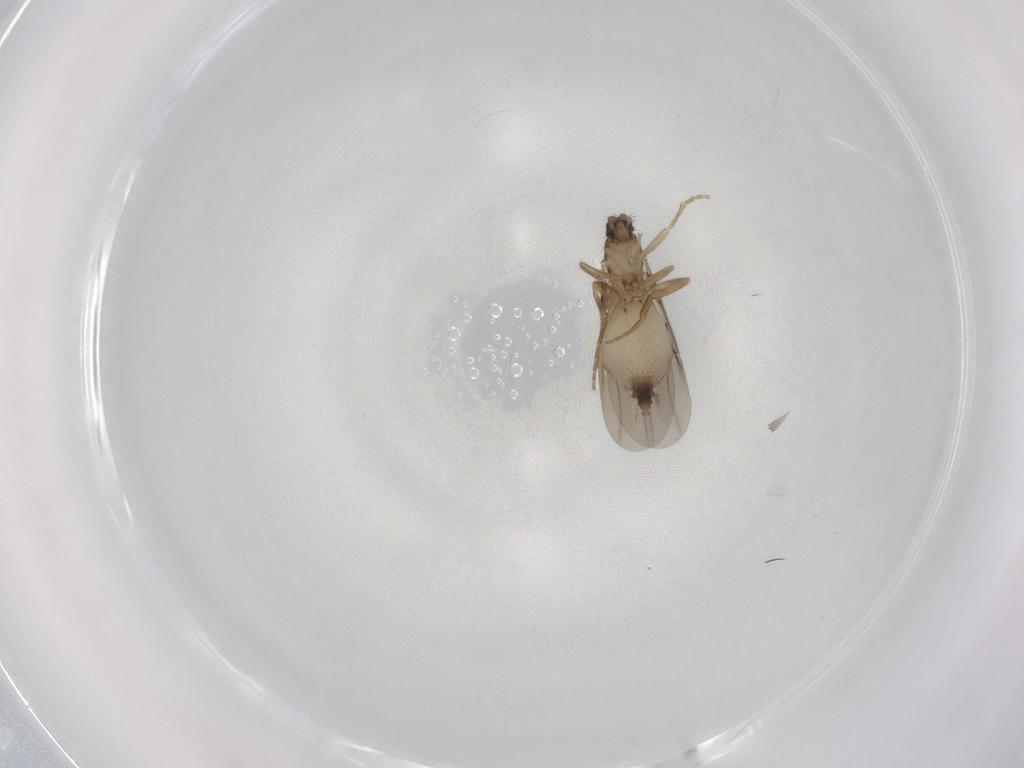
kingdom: Animalia
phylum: Arthropoda
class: Insecta
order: Diptera
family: Phoridae
